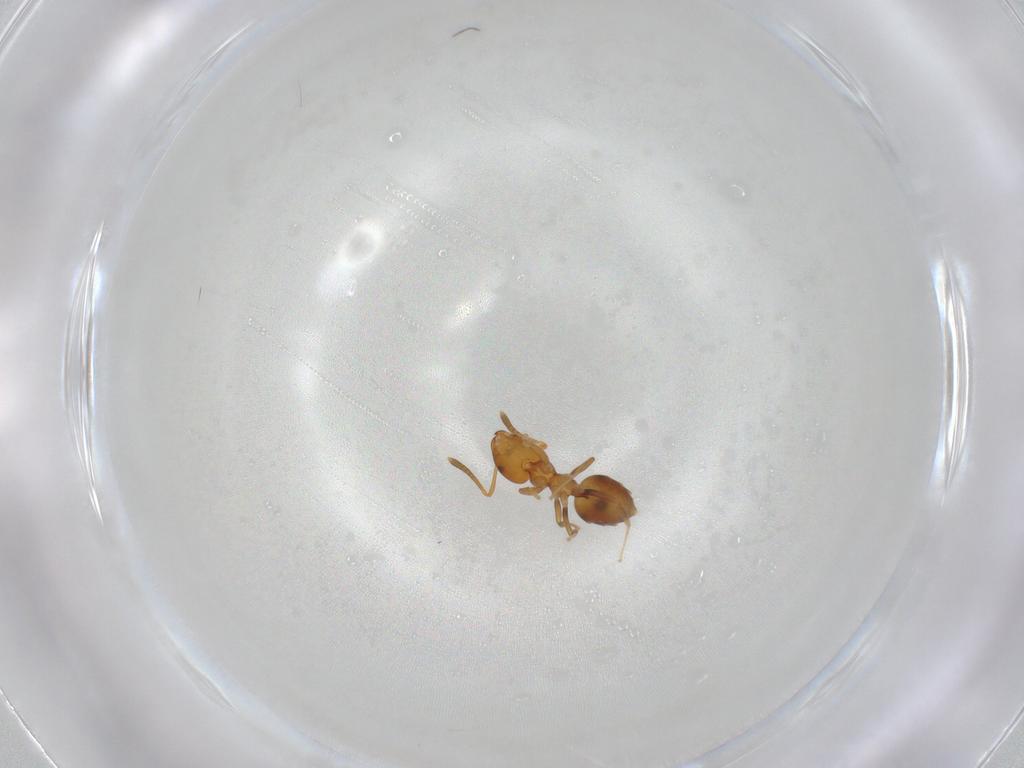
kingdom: Animalia
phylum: Arthropoda
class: Insecta
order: Hymenoptera
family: Formicidae
